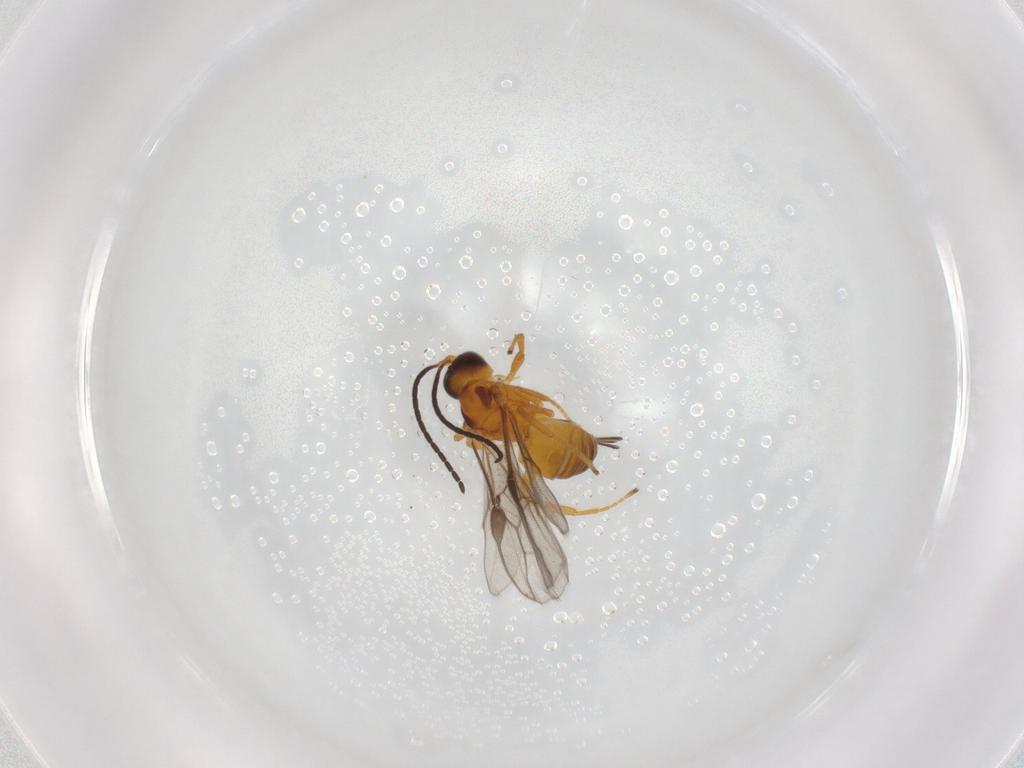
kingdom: Animalia
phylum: Arthropoda
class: Insecta
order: Hymenoptera
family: Braconidae
